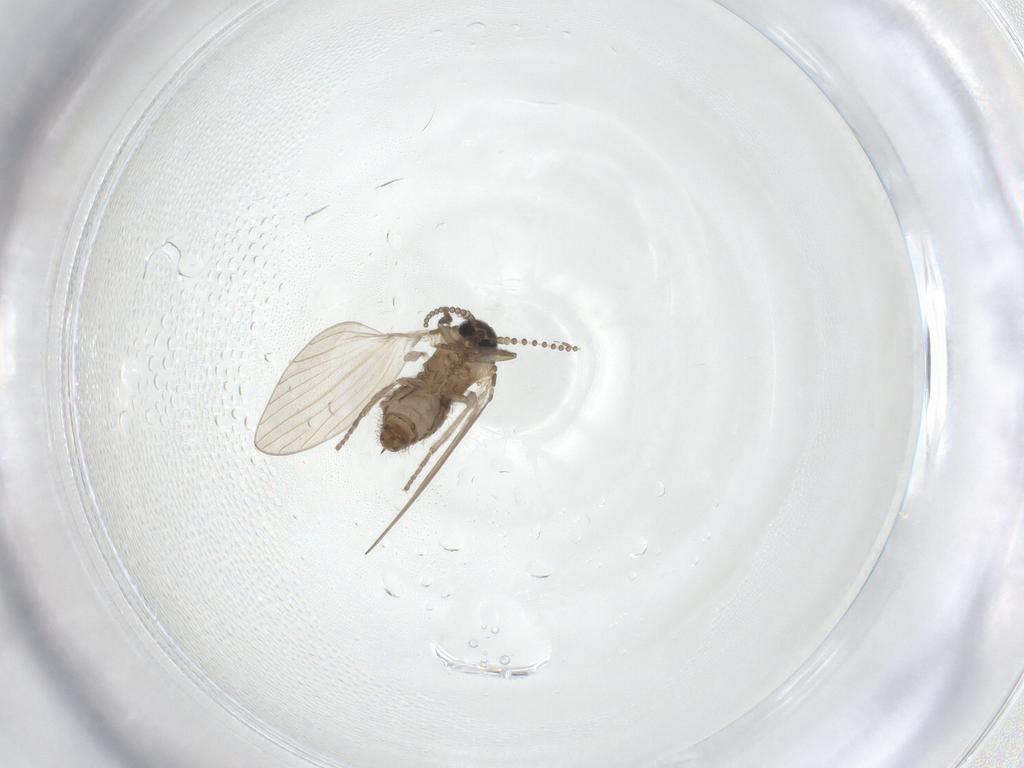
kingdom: Animalia
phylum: Arthropoda
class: Insecta
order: Diptera
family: Psychodidae
